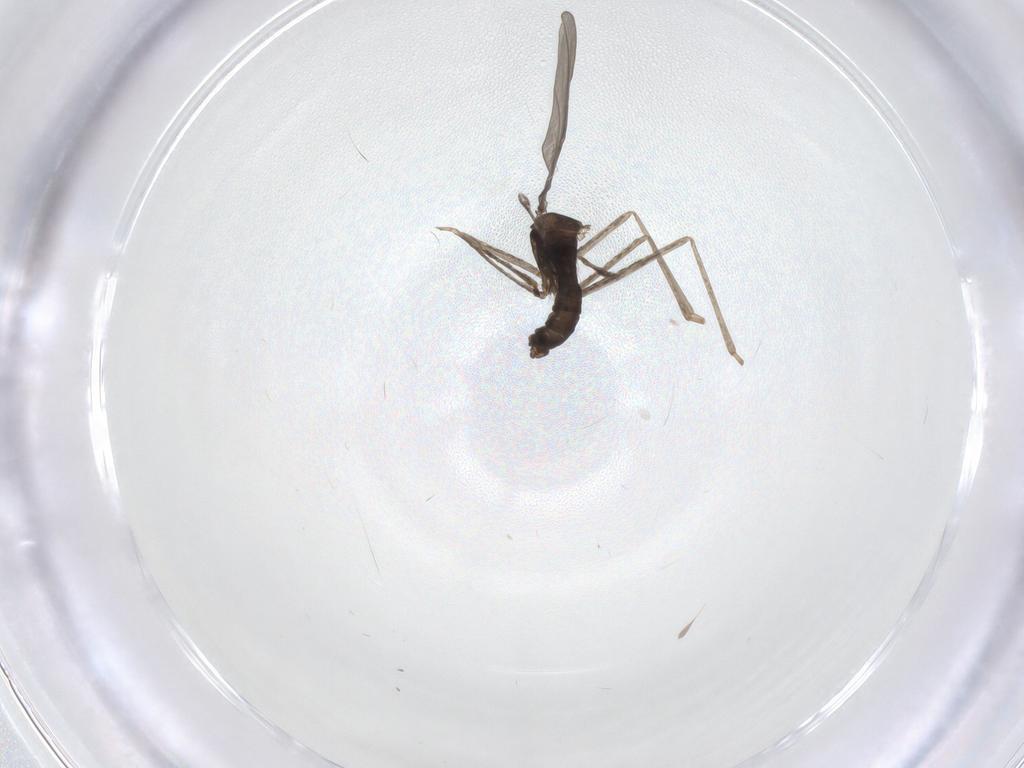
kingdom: Animalia
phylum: Arthropoda
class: Insecta
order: Diptera
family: Cecidomyiidae
